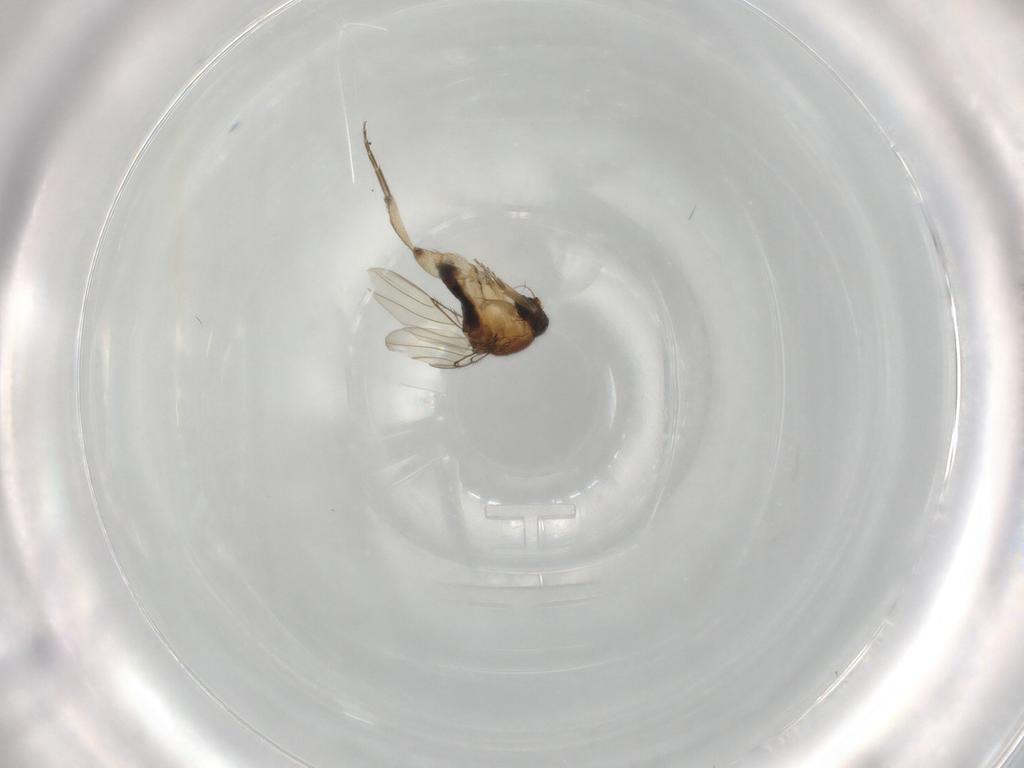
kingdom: Animalia
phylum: Arthropoda
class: Insecta
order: Diptera
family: Phoridae
